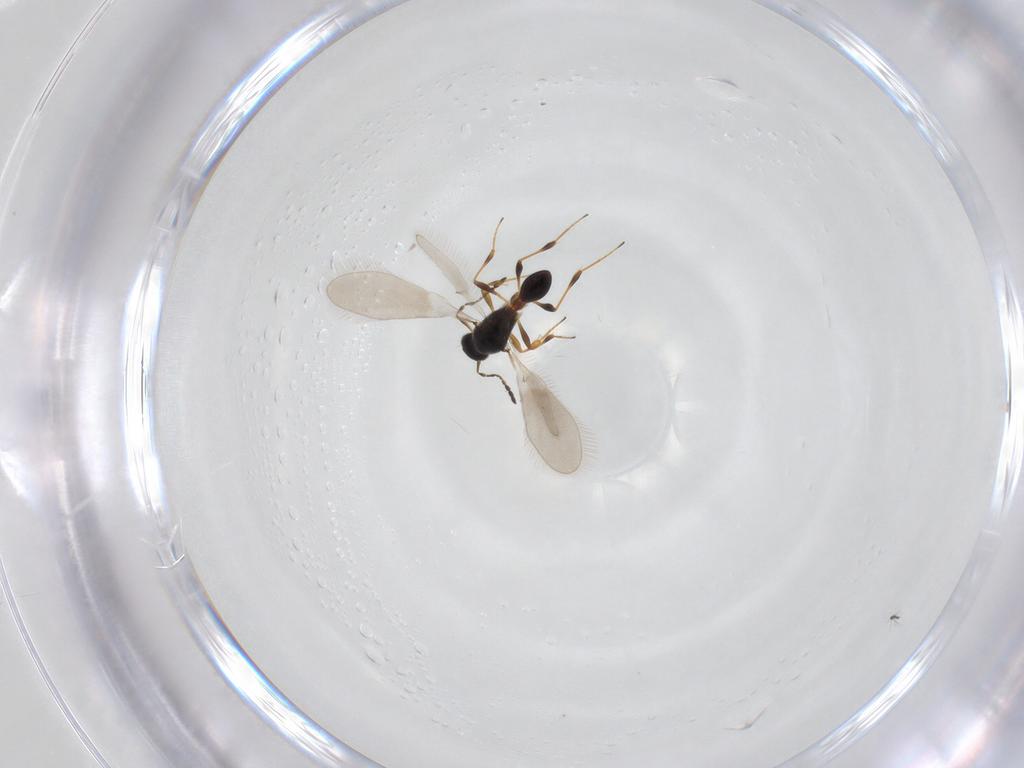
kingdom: Animalia
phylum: Arthropoda
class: Insecta
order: Hymenoptera
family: Platygastridae
